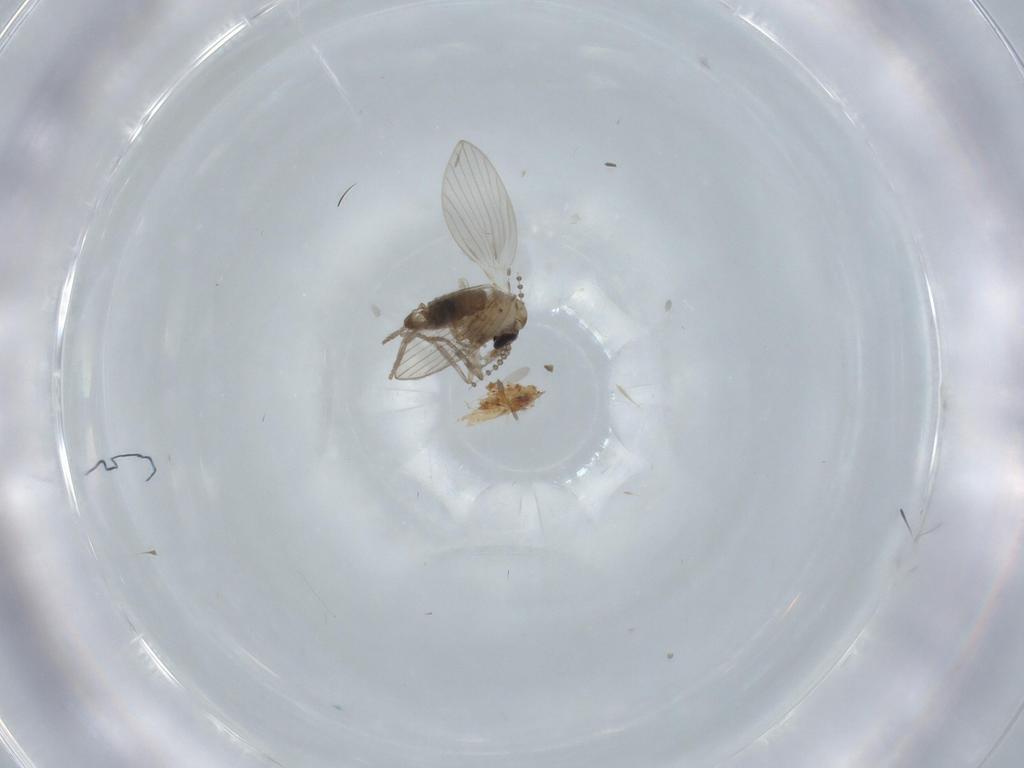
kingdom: Animalia
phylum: Arthropoda
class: Insecta
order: Diptera
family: Psychodidae
